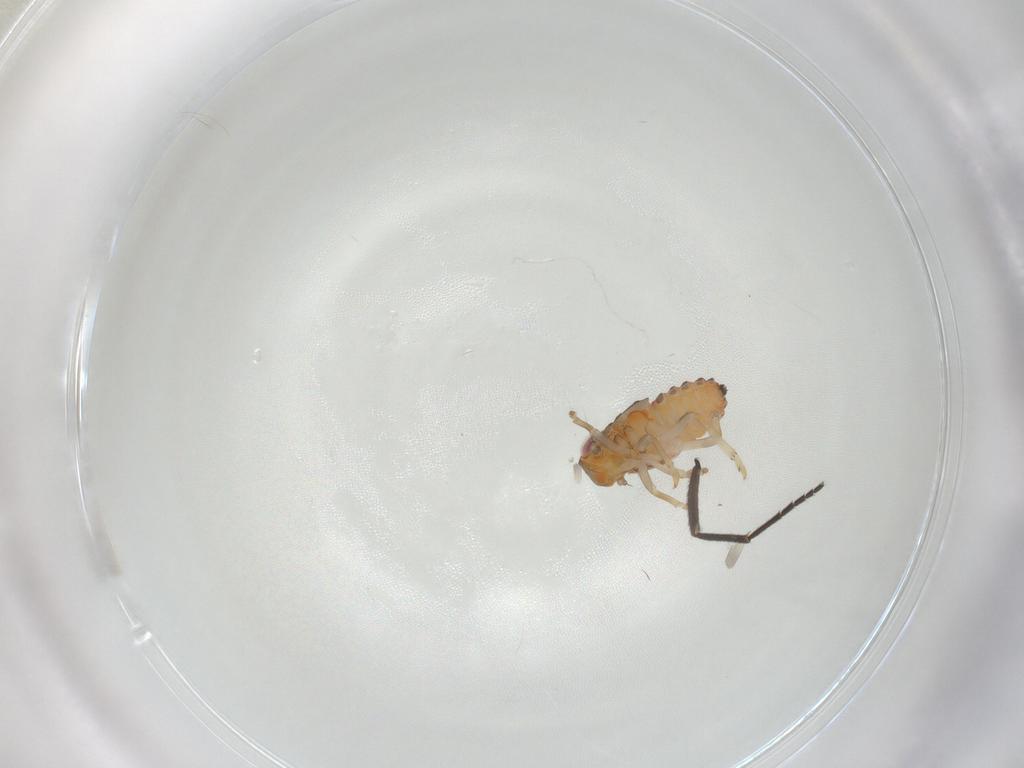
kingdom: Animalia
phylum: Arthropoda
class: Insecta
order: Hemiptera
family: Issidae
